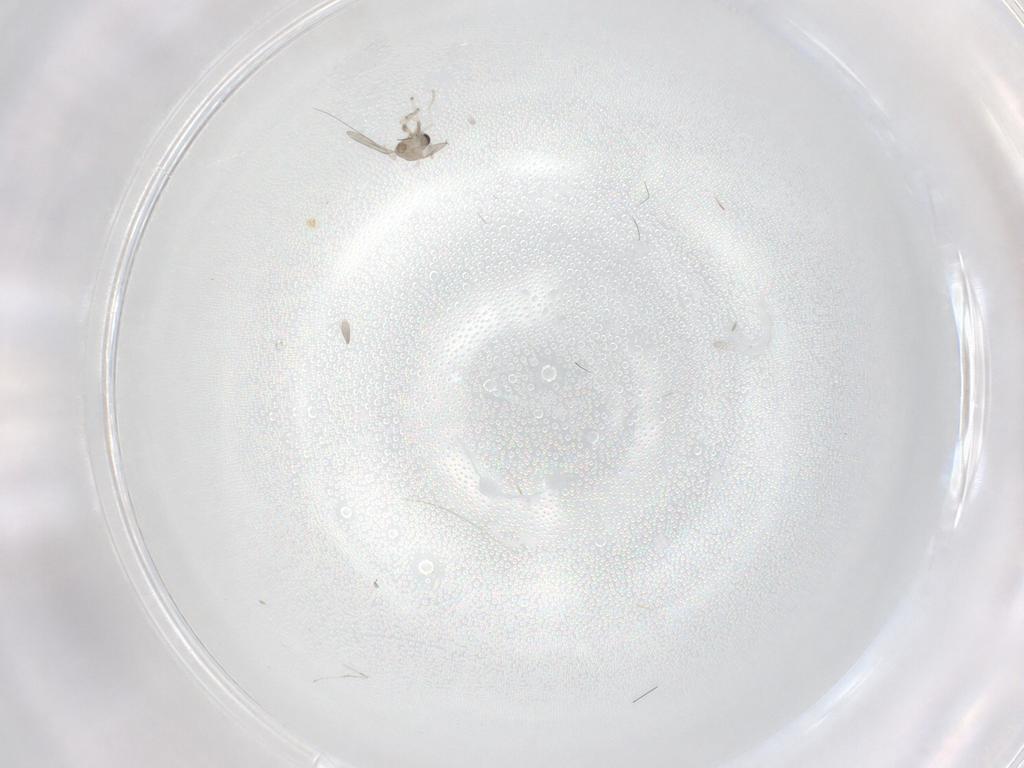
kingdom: Animalia
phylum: Arthropoda
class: Insecta
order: Diptera
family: Cecidomyiidae
